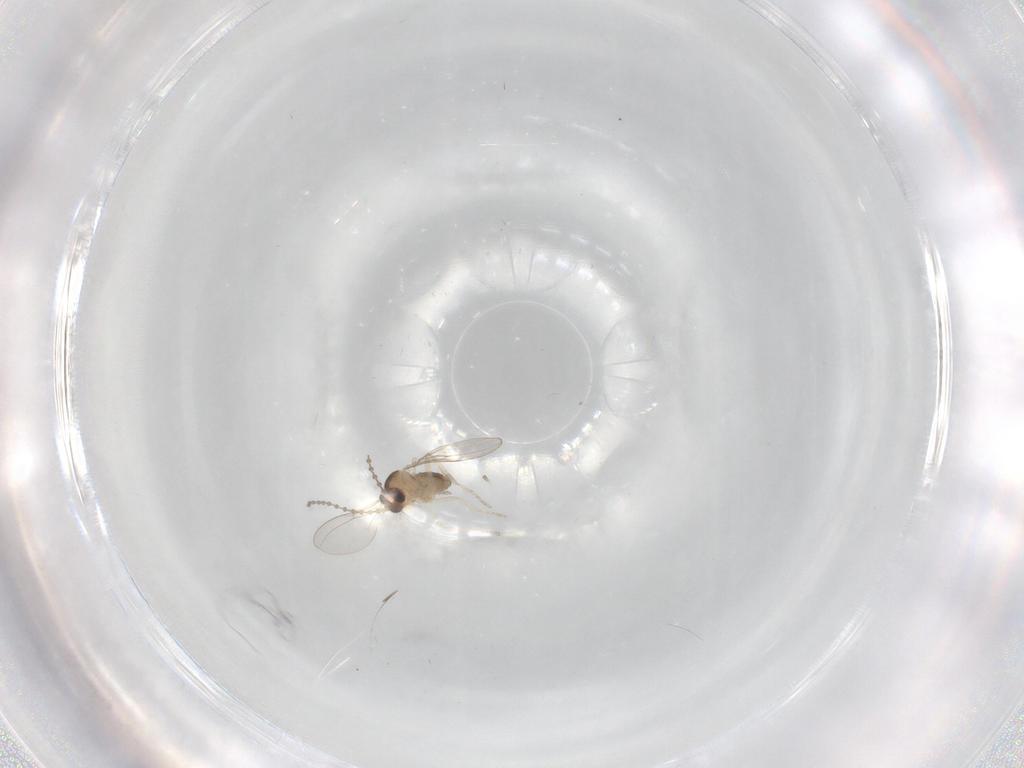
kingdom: Animalia
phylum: Arthropoda
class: Insecta
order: Diptera
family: Cecidomyiidae
